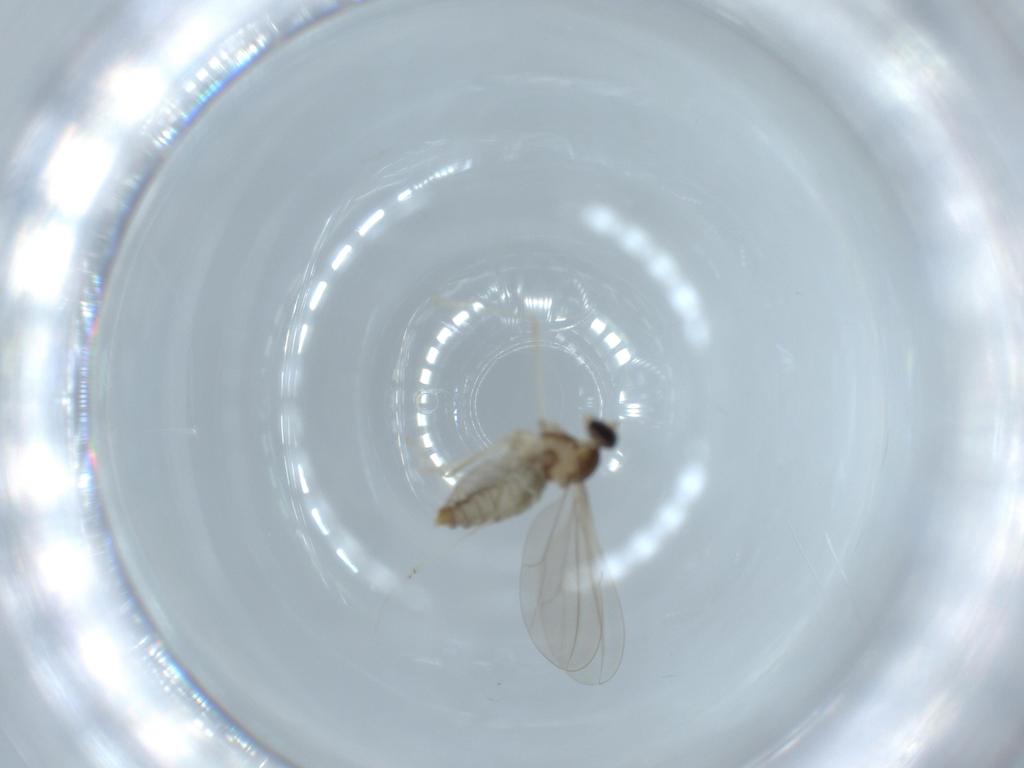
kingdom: Animalia
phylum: Arthropoda
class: Insecta
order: Diptera
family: Cecidomyiidae
